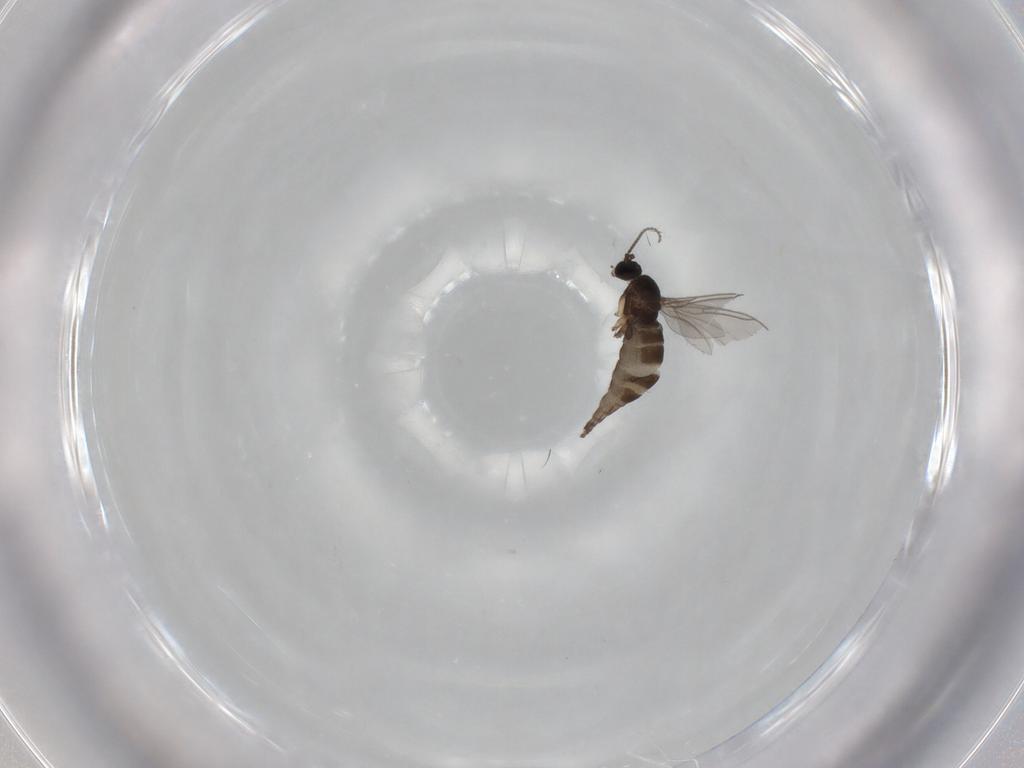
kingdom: Animalia
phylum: Arthropoda
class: Insecta
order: Diptera
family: Sciaridae
